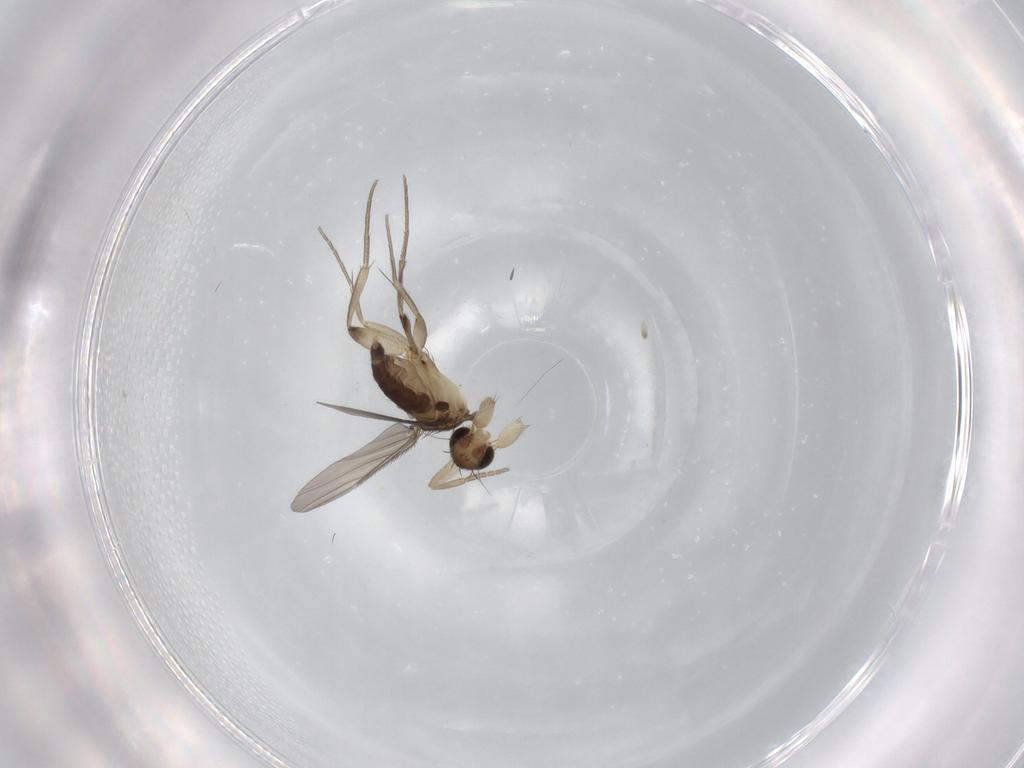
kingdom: Animalia
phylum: Arthropoda
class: Insecta
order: Diptera
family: Phoridae
